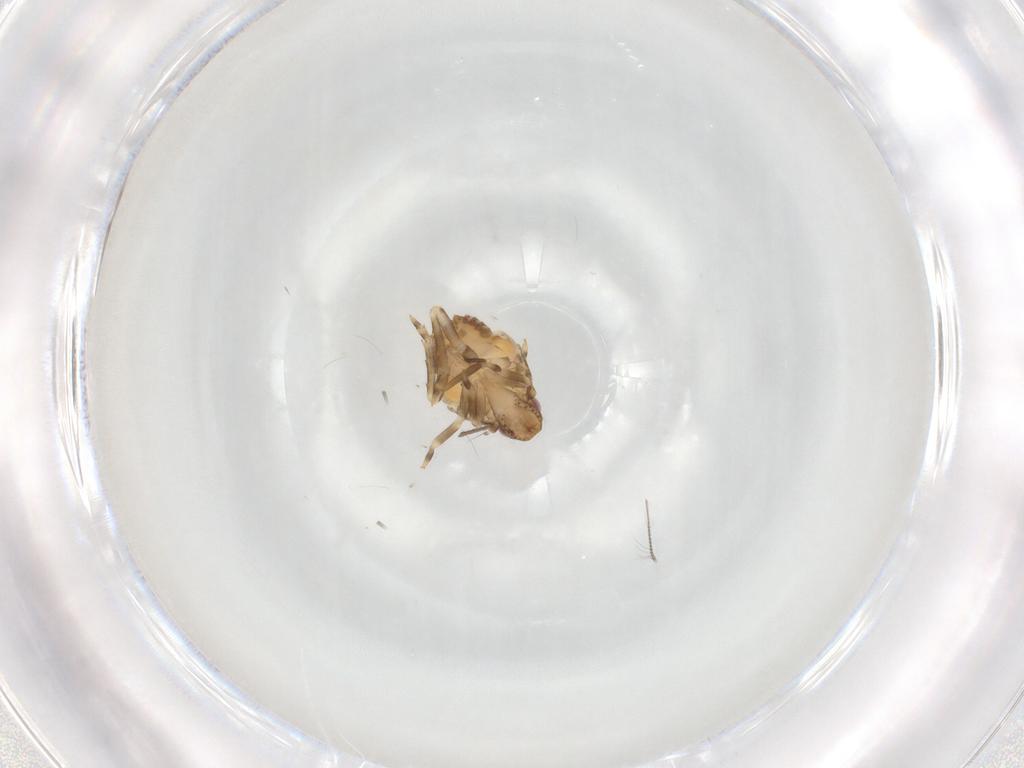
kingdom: Animalia
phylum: Arthropoda
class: Insecta
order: Hemiptera
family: Flatidae
